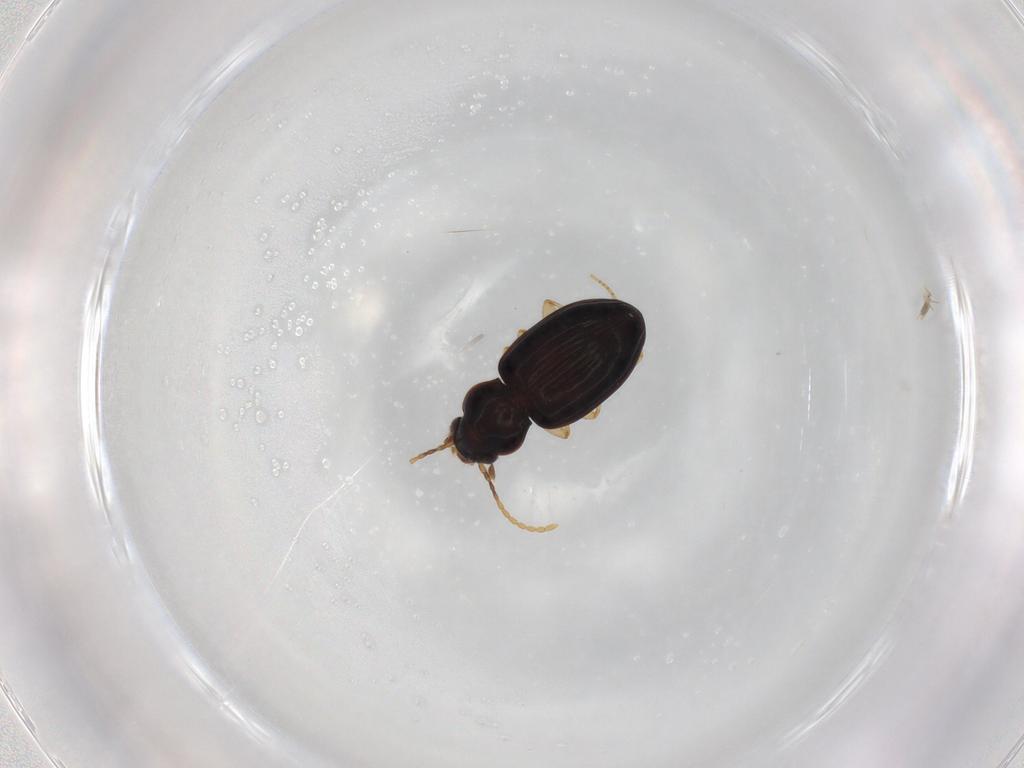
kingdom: Animalia
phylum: Arthropoda
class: Insecta
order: Coleoptera
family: Carabidae
